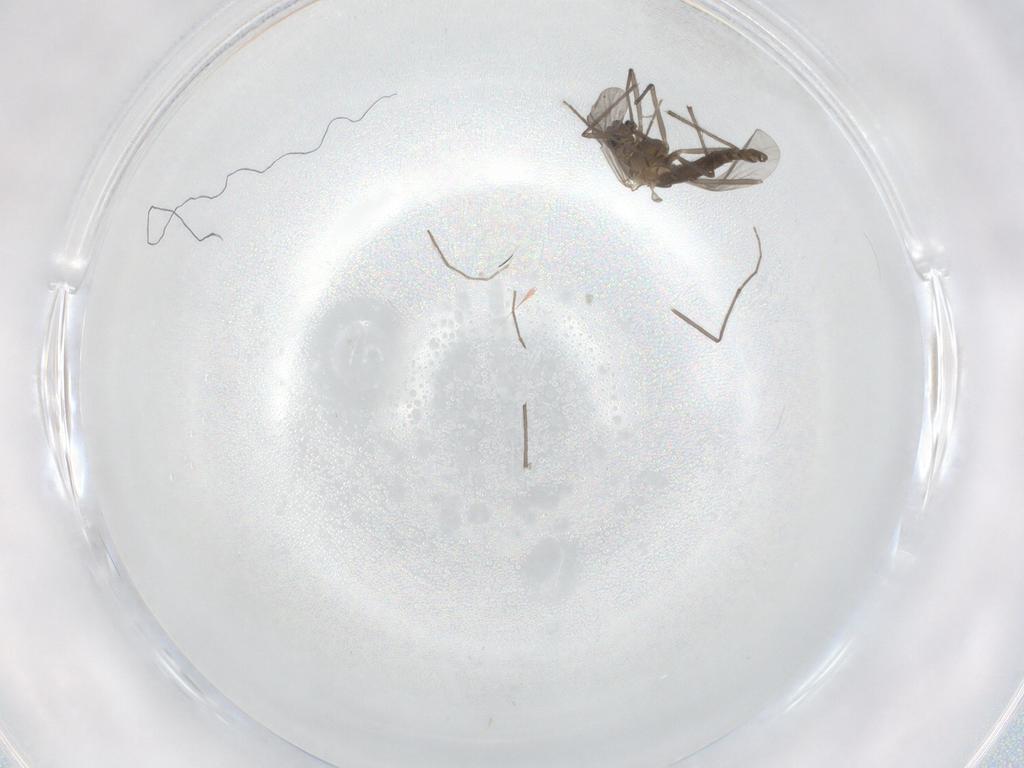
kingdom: Animalia
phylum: Arthropoda
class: Insecta
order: Diptera
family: Chironomidae
